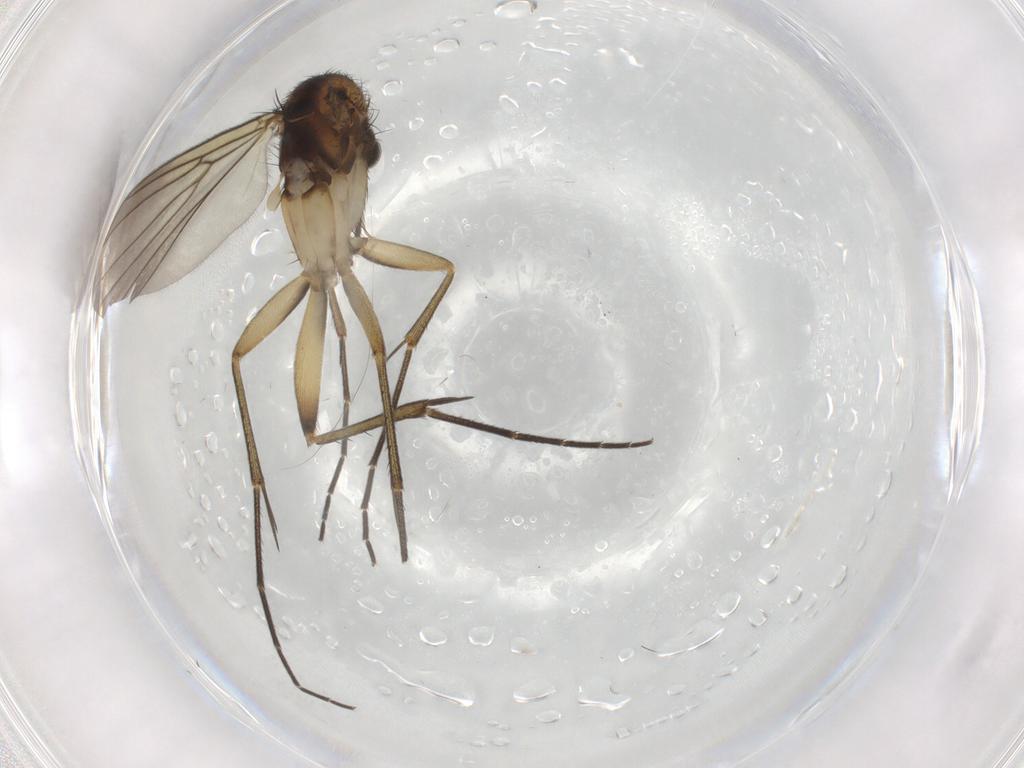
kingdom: Animalia
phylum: Arthropoda
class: Insecta
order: Diptera
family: Phoridae
